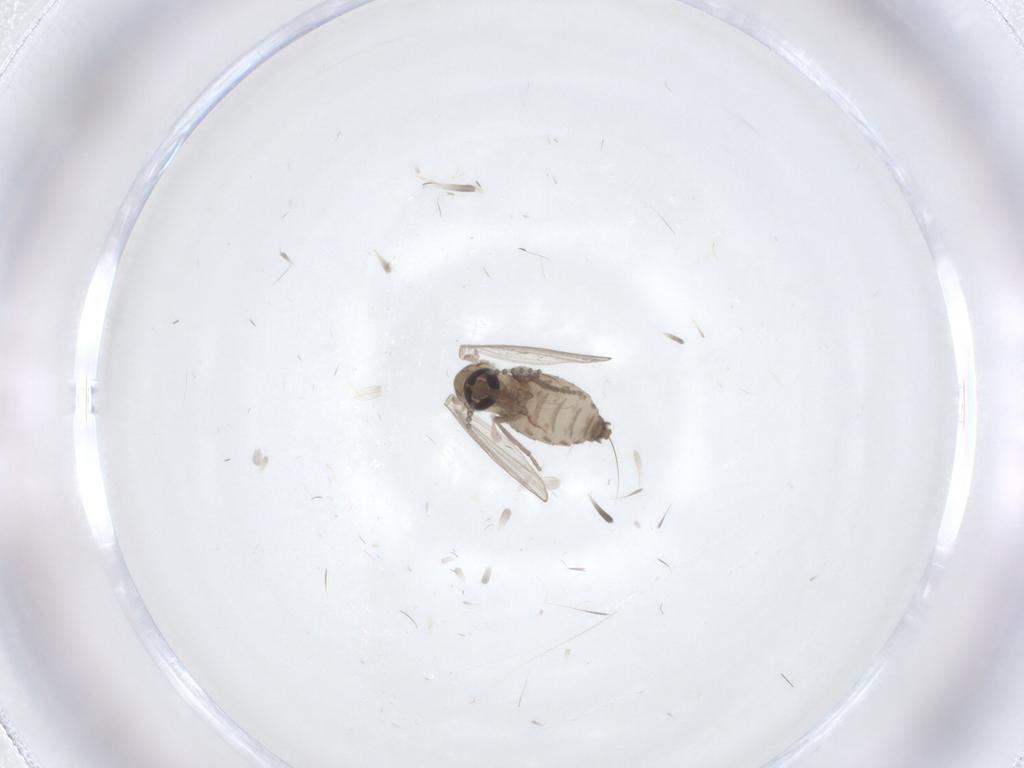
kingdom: Animalia
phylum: Arthropoda
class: Insecta
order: Diptera
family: Psychodidae
